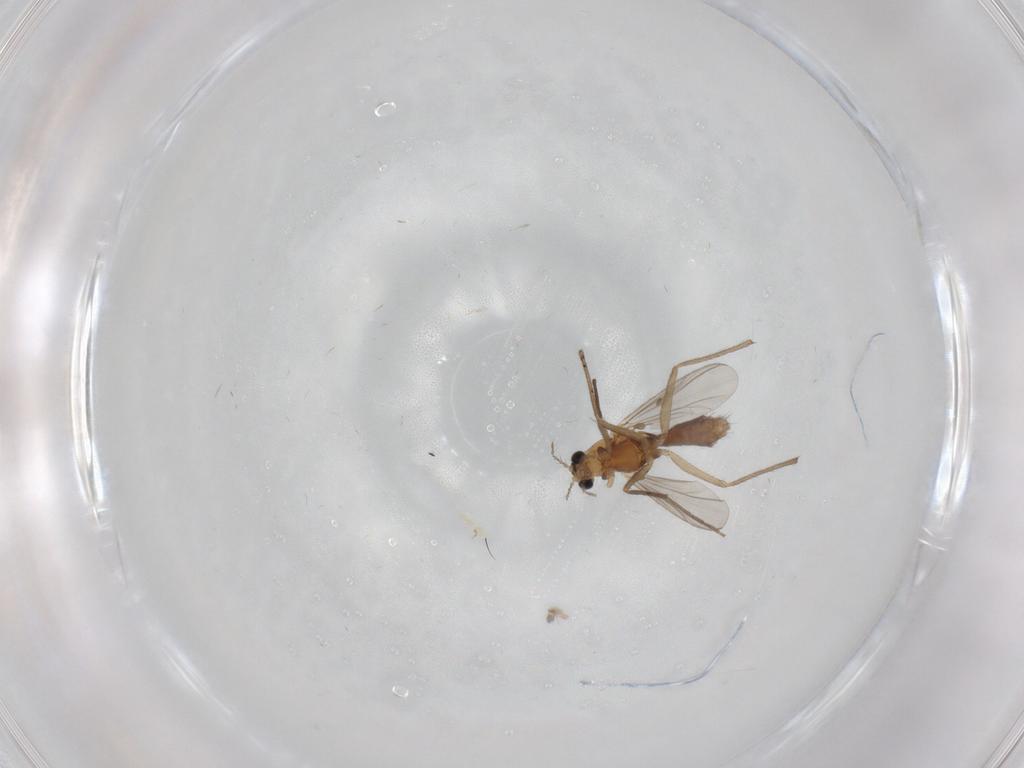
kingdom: Animalia
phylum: Arthropoda
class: Insecta
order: Diptera
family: Chironomidae
